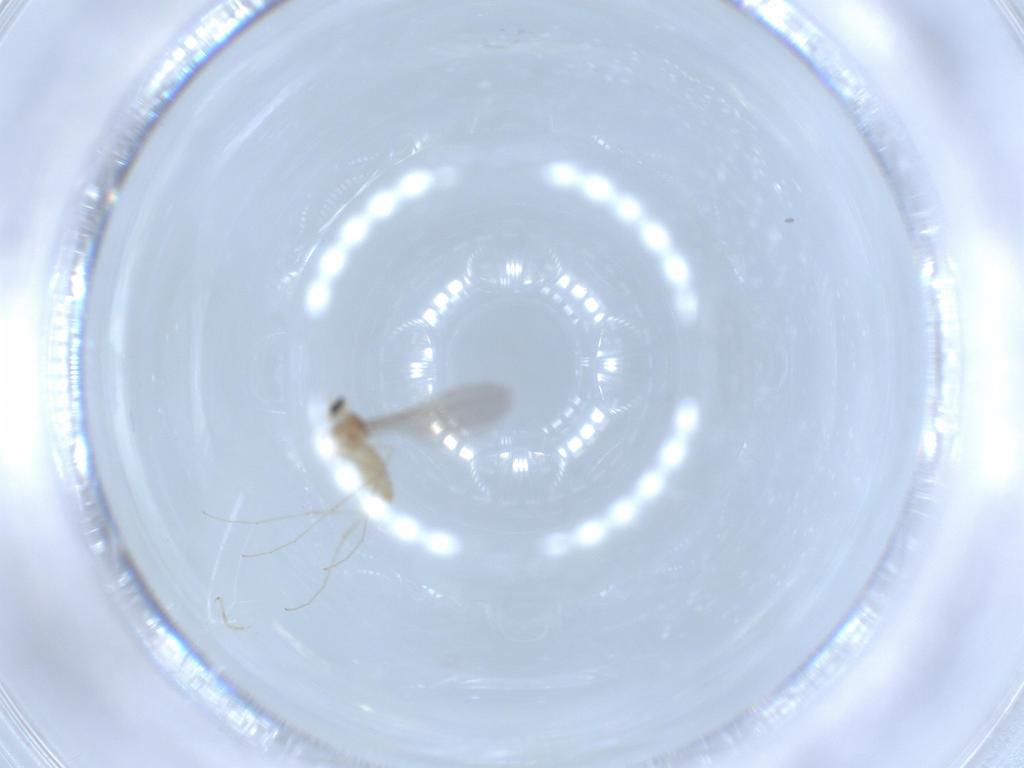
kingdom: Animalia
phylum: Arthropoda
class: Insecta
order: Diptera
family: Cecidomyiidae
